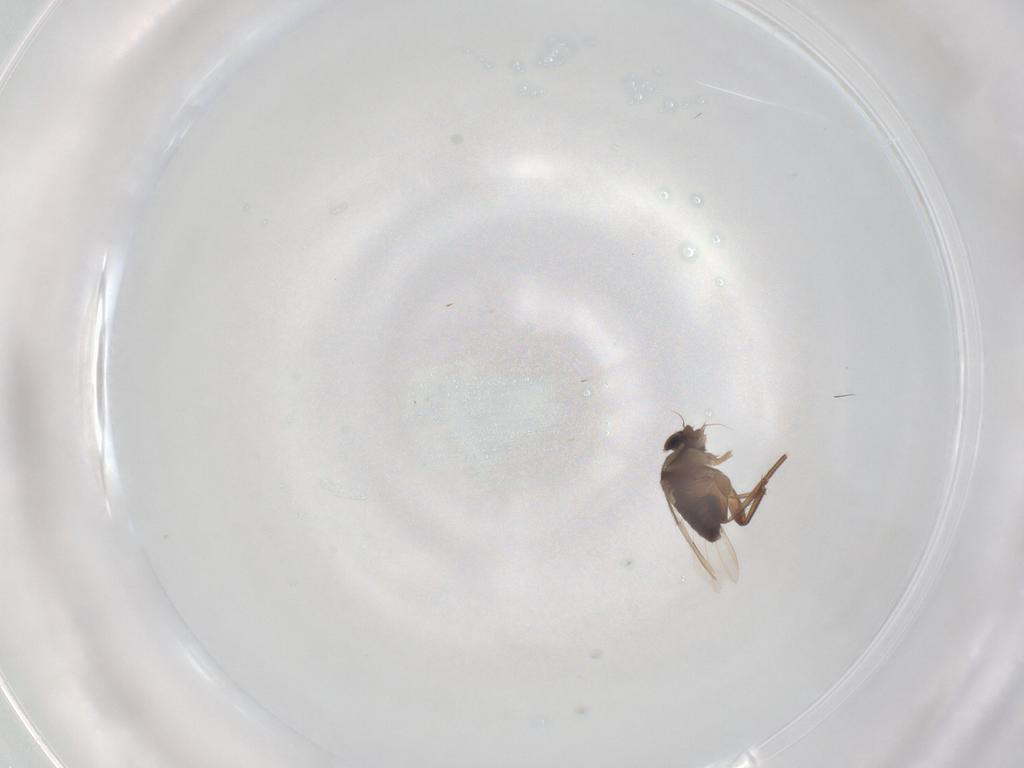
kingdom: Animalia
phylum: Arthropoda
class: Insecta
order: Diptera
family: Phoridae
